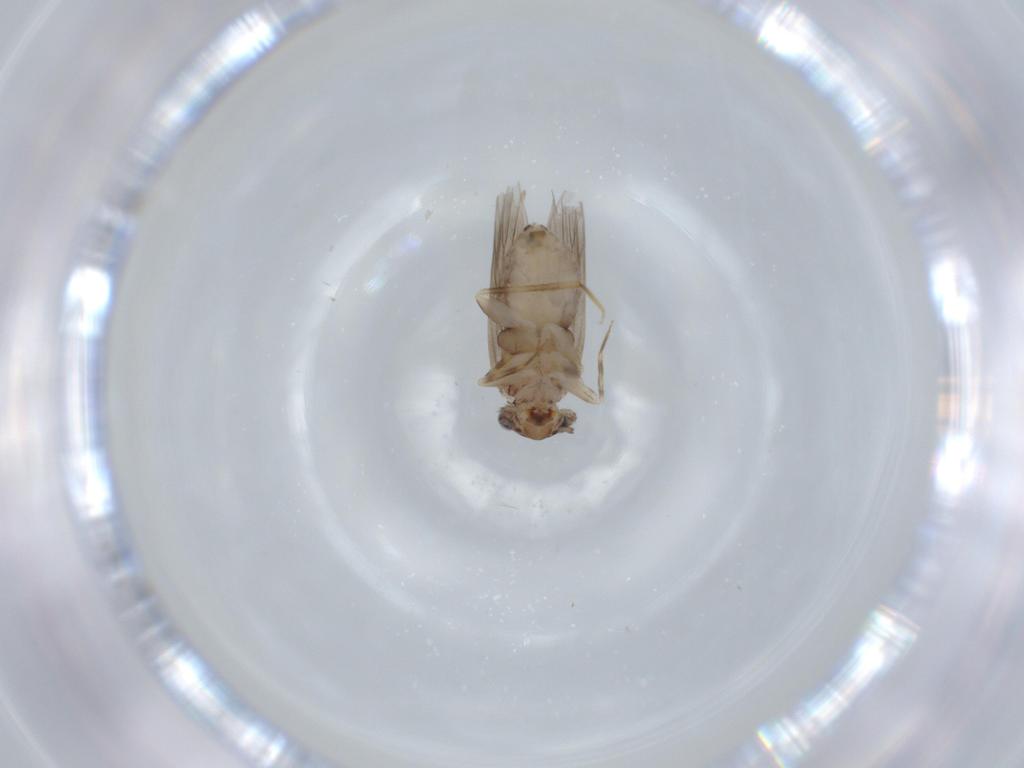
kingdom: Animalia
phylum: Arthropoda
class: Insecta
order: Psocodea
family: Lepidopsocidae
